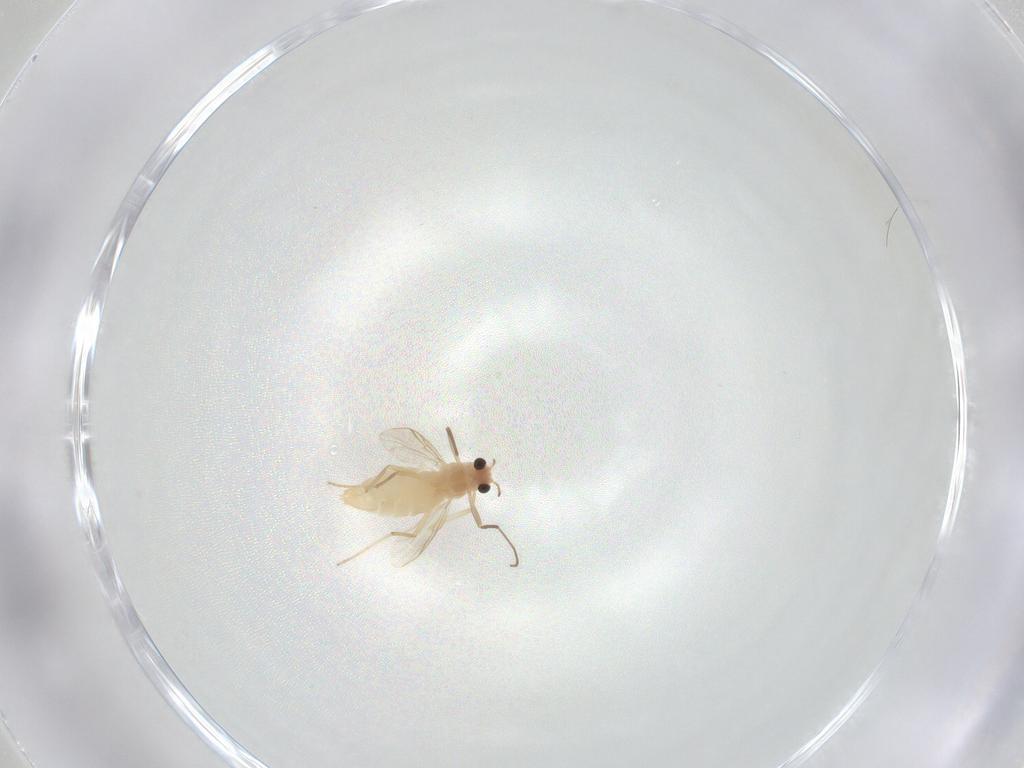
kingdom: Animalia
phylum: Arthropoda
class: Insecta
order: Diptera
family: Chironomidae
